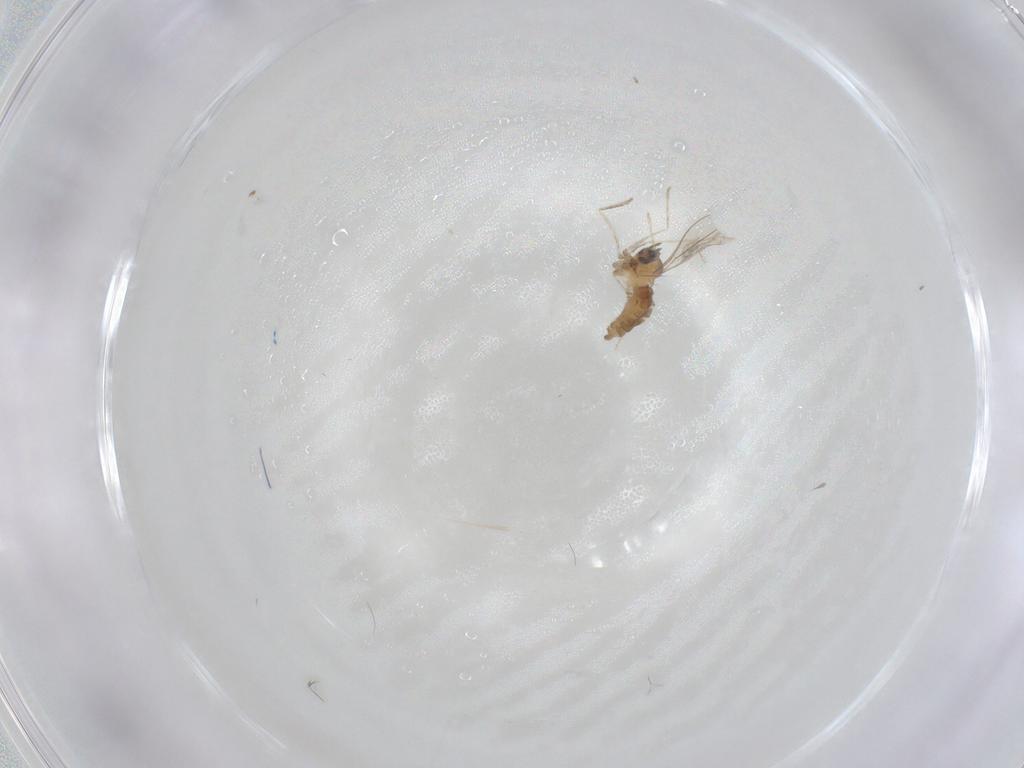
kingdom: Animalia
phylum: Arthropoda
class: Insecta
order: Diptera
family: Cecidomyiidae
